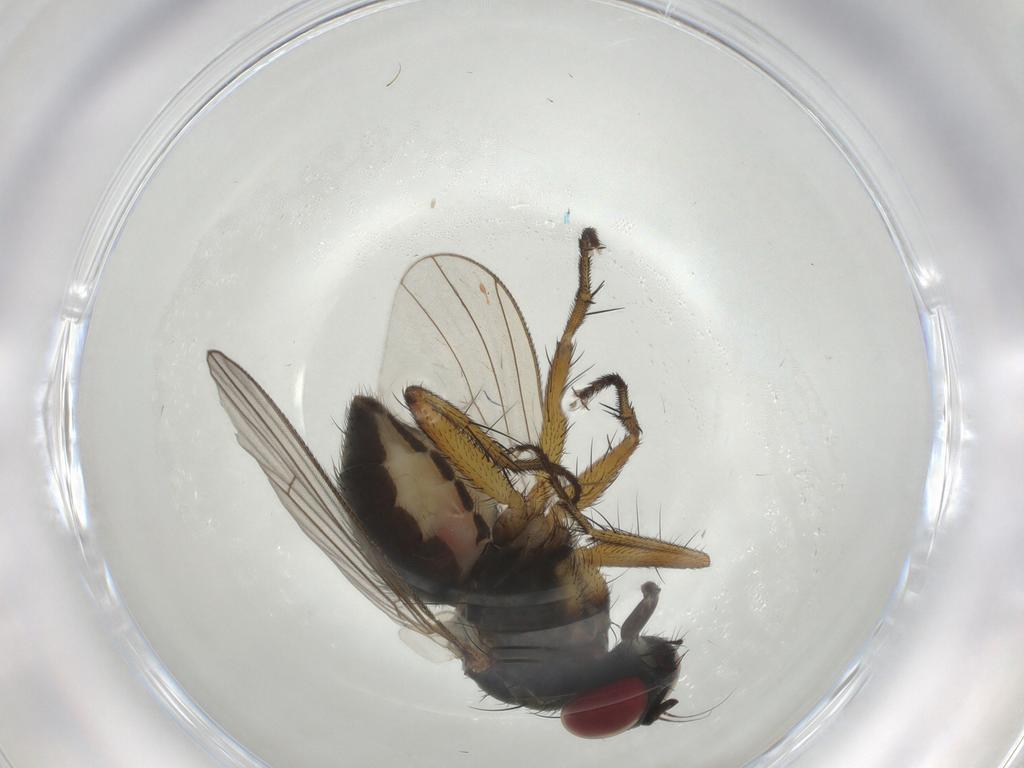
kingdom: Animalia
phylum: Arthropoda
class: Insecta
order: Diptera
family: Muscidae
